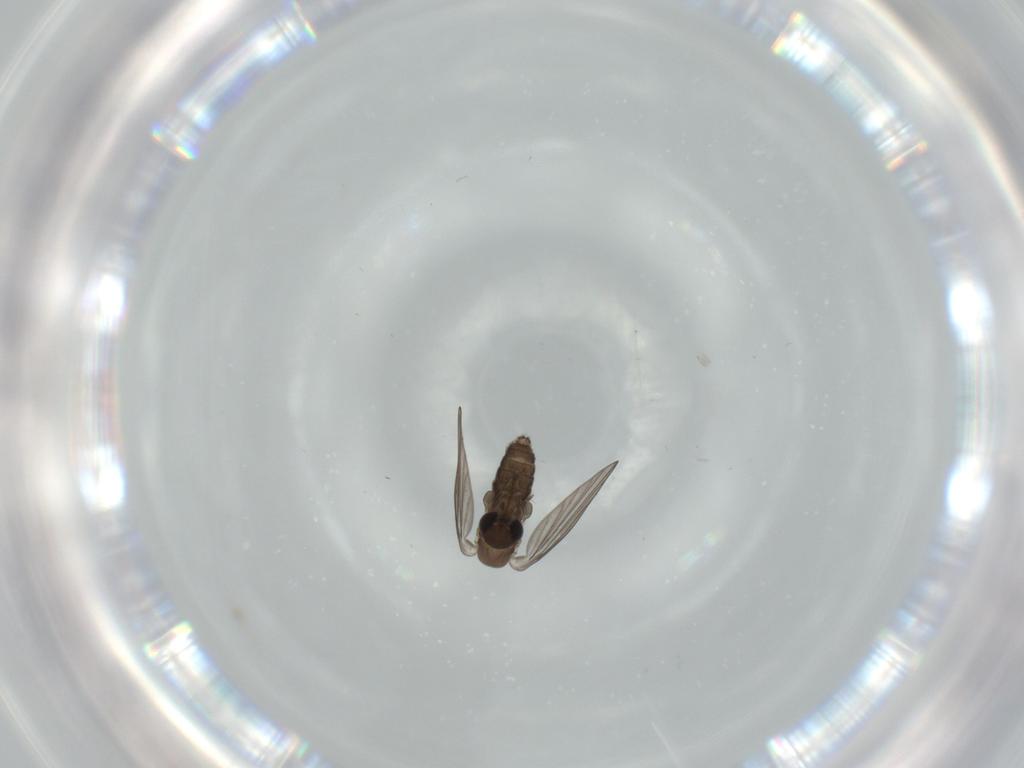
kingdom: Animalia
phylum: Arthropoda
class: Insecta
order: Diptera
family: Psychodidae
